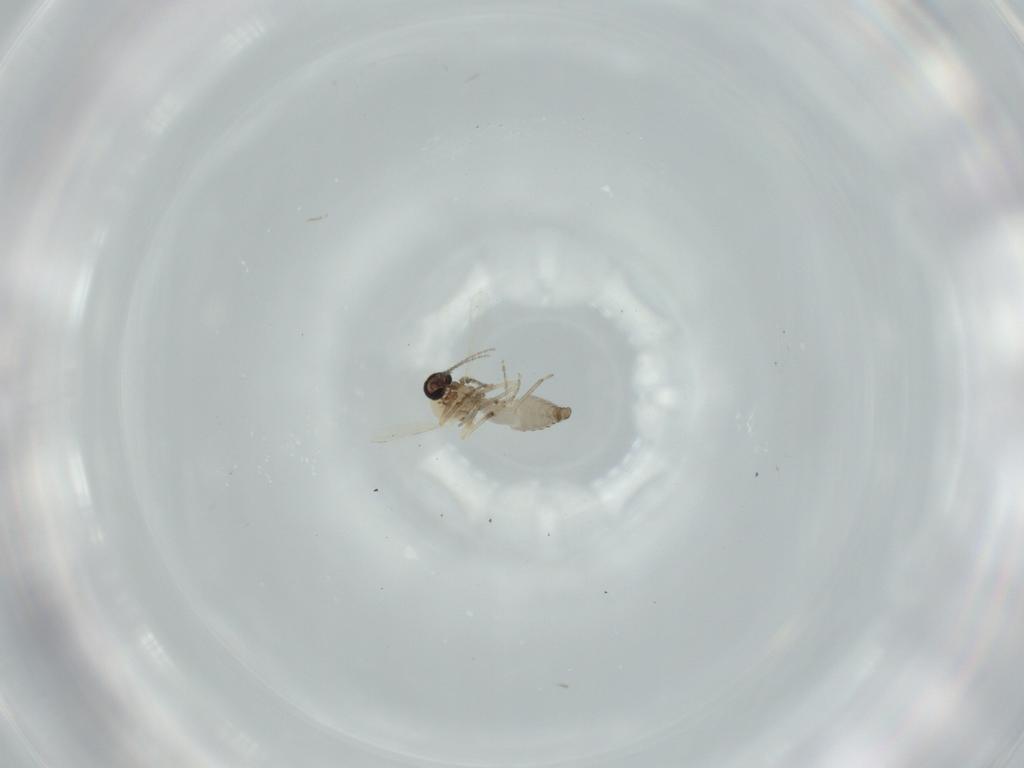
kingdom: Animalia
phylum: Arthropoda
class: Insecta
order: Diptera
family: Ceratopogonidae
